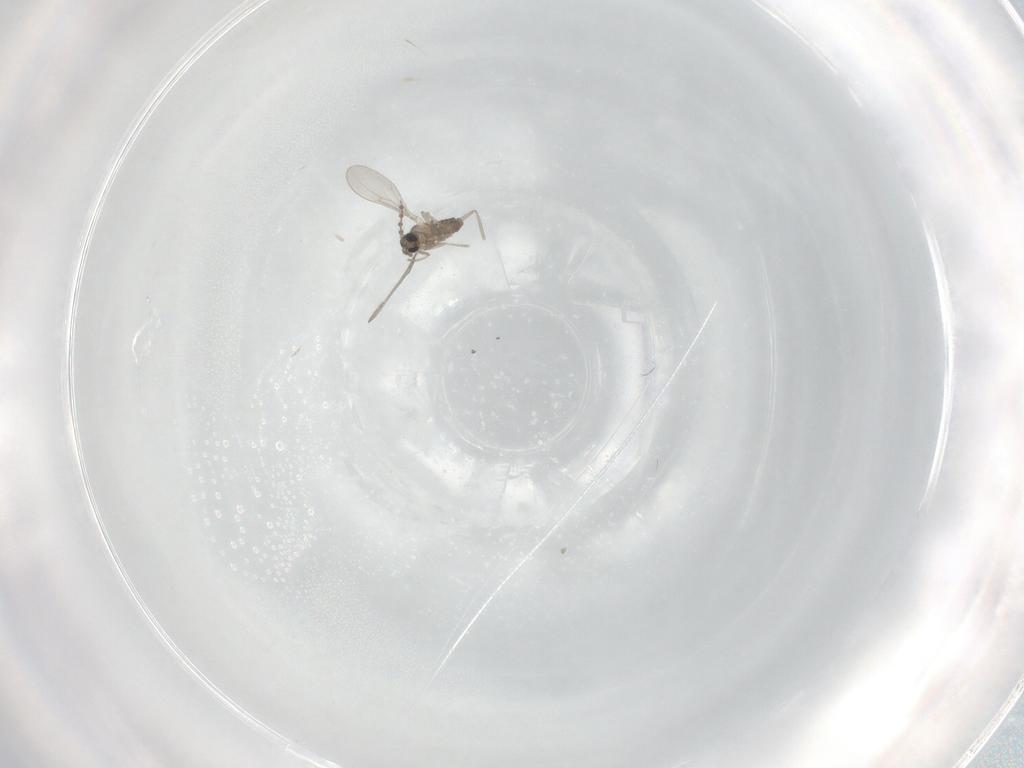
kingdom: Animalia
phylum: Arthropoda
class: Insecta
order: Diptera
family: Cecidomyiidae
